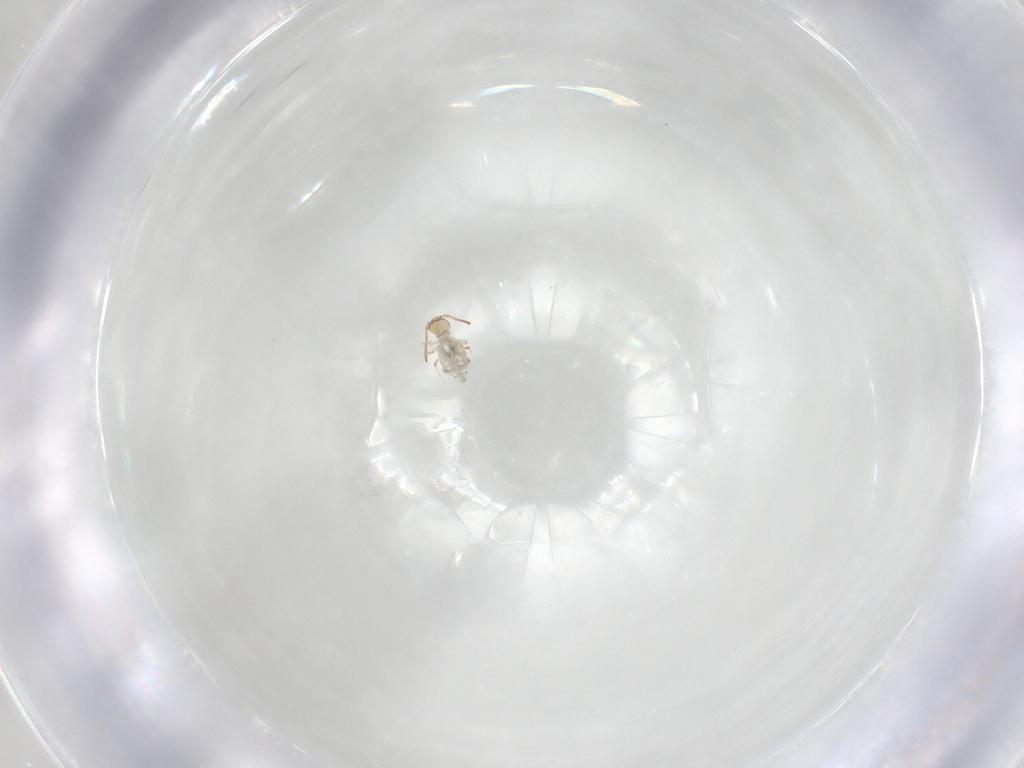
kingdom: Animalia
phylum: Arthropoda
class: Collembola
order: Symphypleona
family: Bourletiellidae
